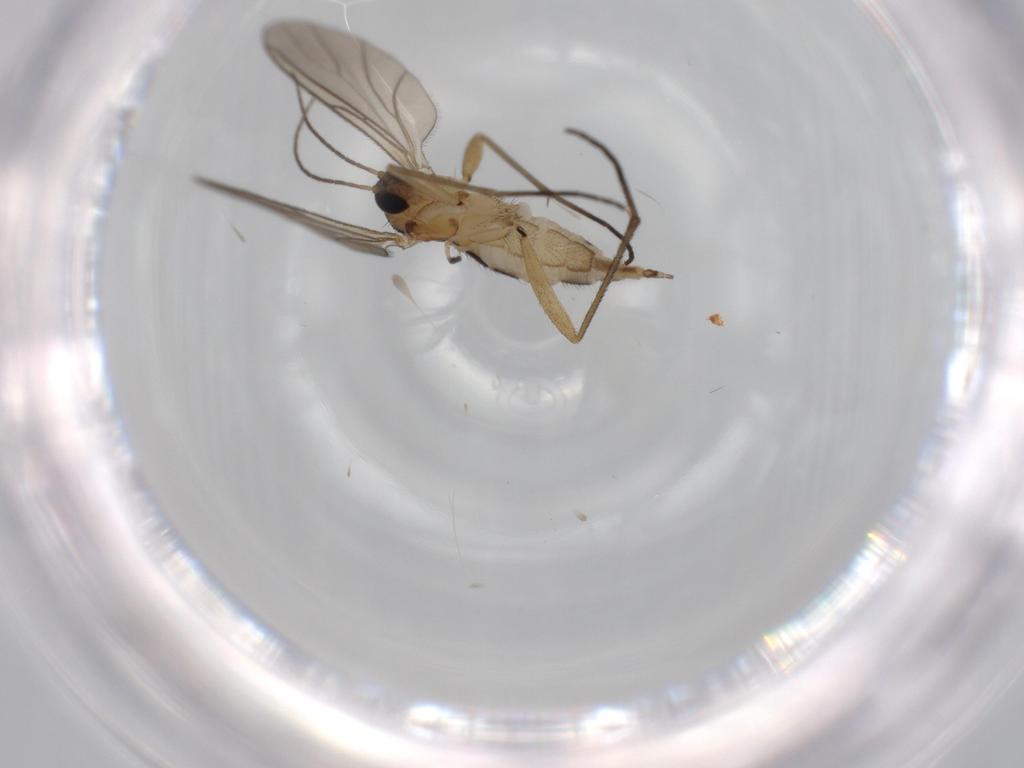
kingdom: Animalia
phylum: Arthropoda
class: Insecta
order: Diptera
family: Sciaridae
